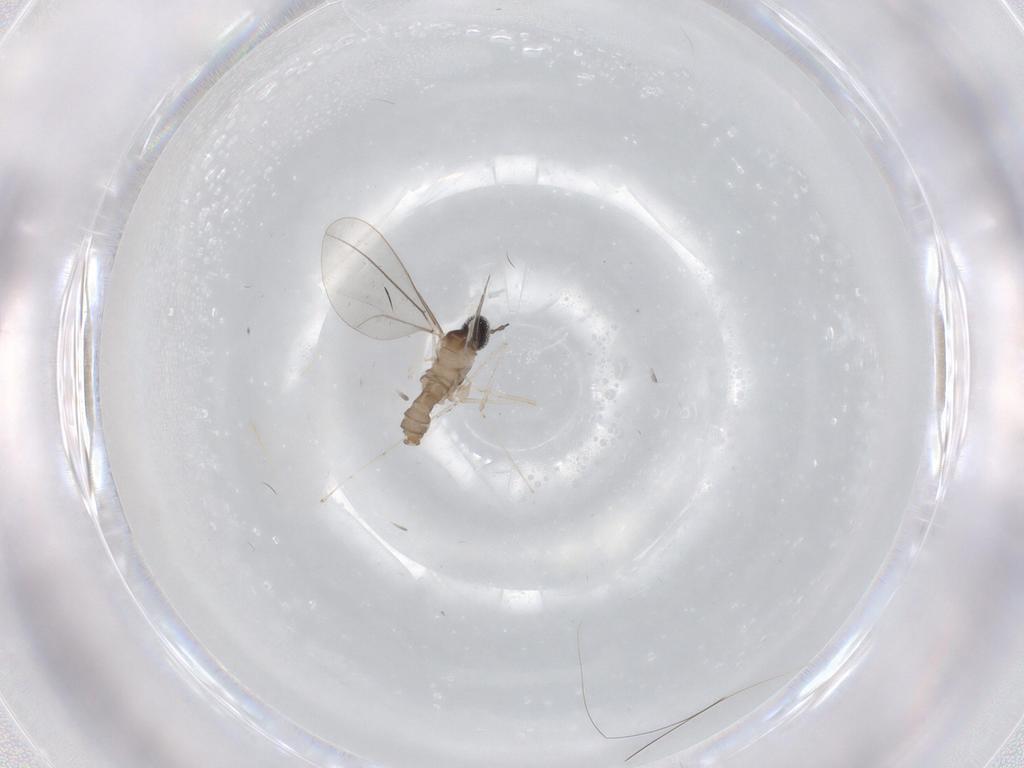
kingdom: Animalia
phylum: Arthropoda
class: Insecta
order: Diptera
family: Cecidomyiidae
